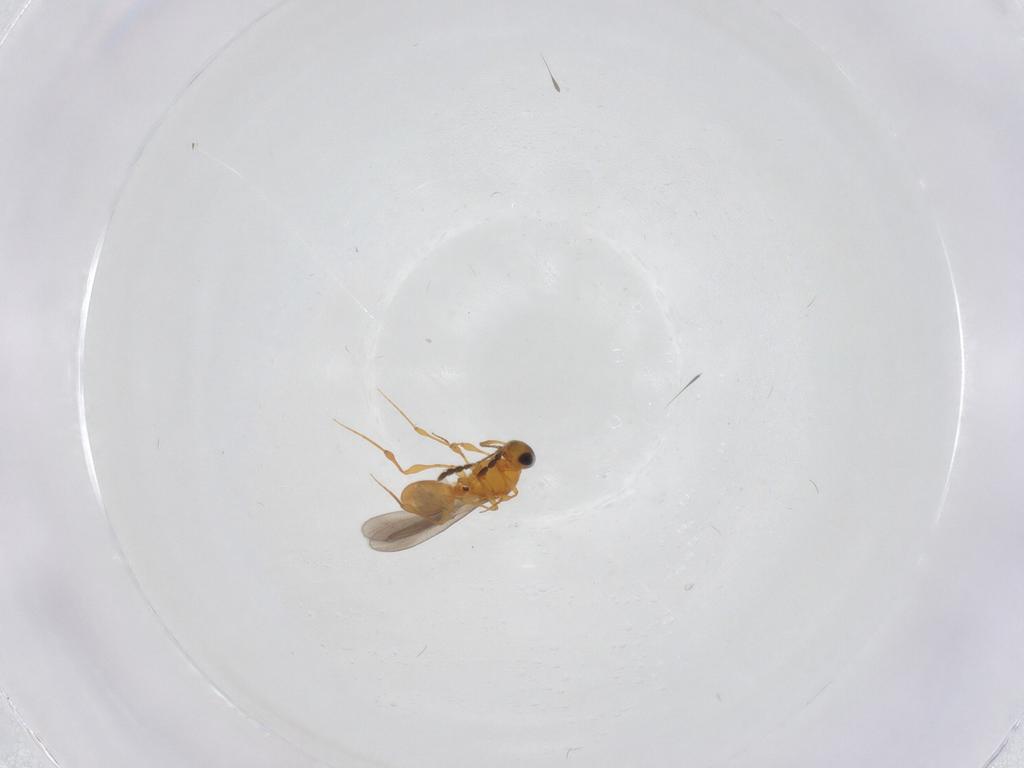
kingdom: Animalia
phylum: Arthropoda
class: Insecta
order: Hymenoptera
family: Platygastridae
